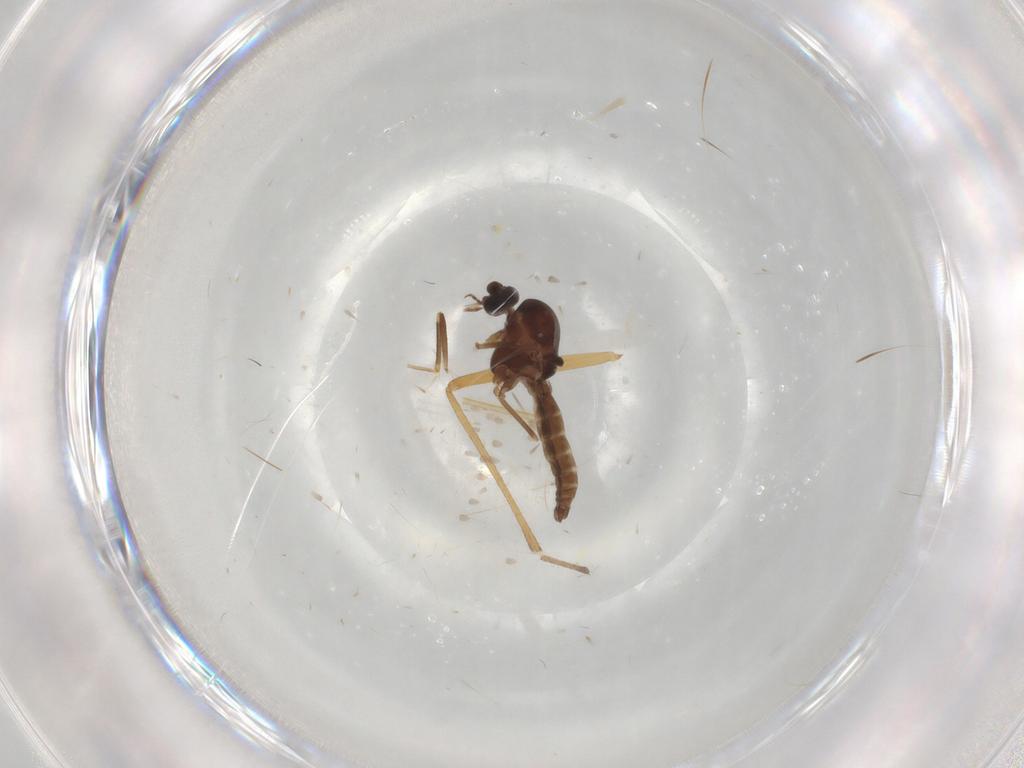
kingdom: Animalia
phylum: Arthropoda
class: Insecta
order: Diptera
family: Ceratopogonidae
